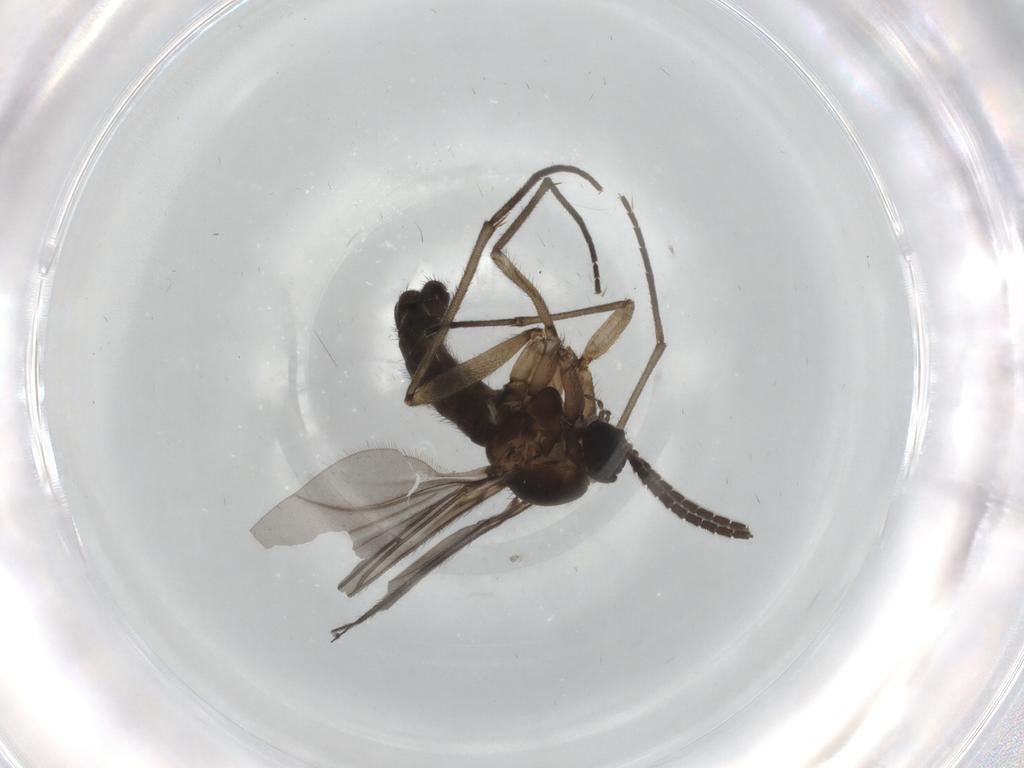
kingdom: Animalia
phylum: Arthropoda
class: Insecta
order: Diptera
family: Sciaridae
